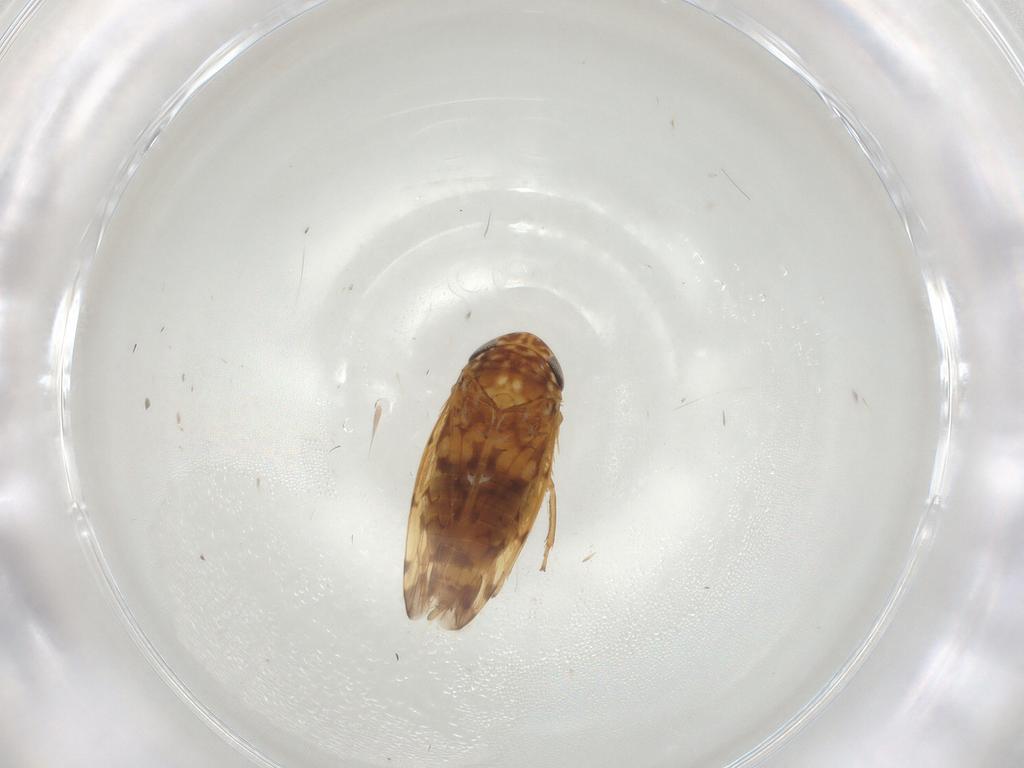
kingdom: Animalia
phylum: Arthropoda
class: Insecta
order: Hemiptera
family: Cicadellidae
